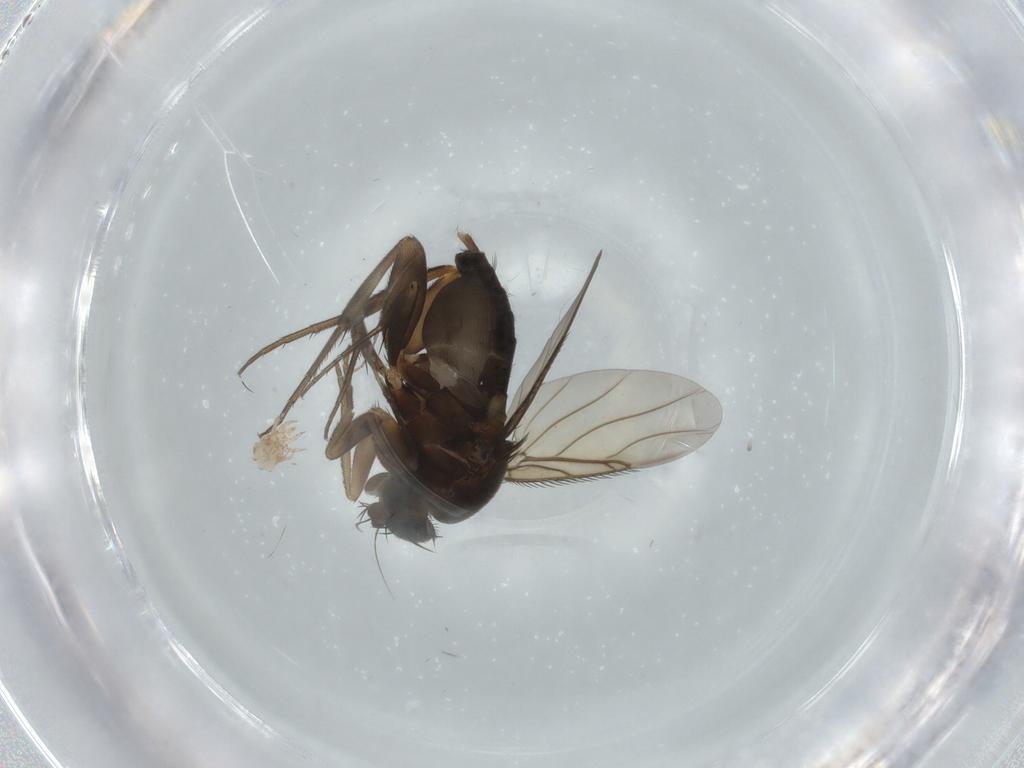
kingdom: Animalia
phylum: Arthropoda
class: Insecta
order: Diptera
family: Phoridae
